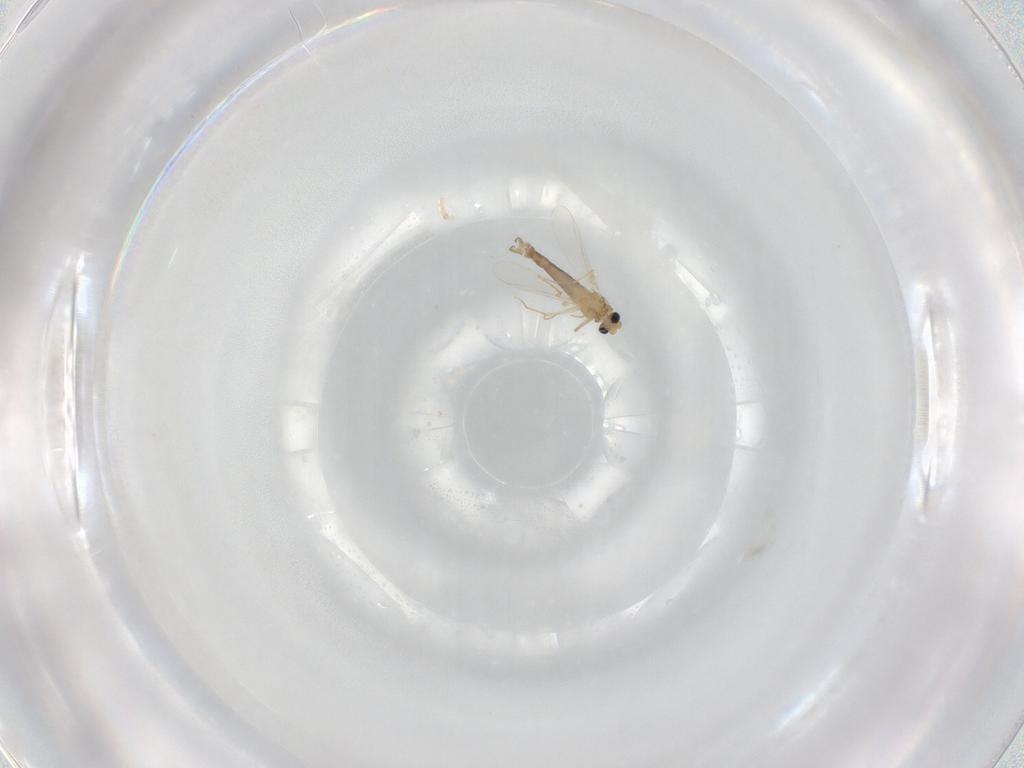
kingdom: Animalia
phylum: Arthropoda
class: Insecta
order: Diptera
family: Chironomidae
